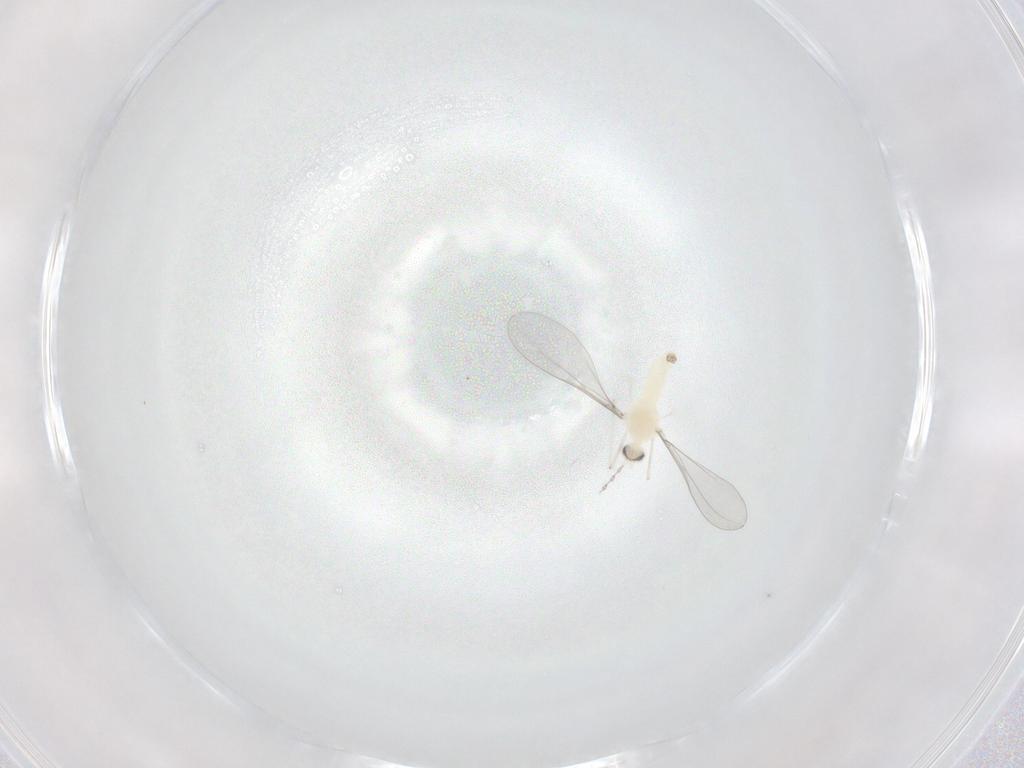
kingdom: Animalia
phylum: Arthropoda
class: Insecta
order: Diptera
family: Cecidomyiidae
